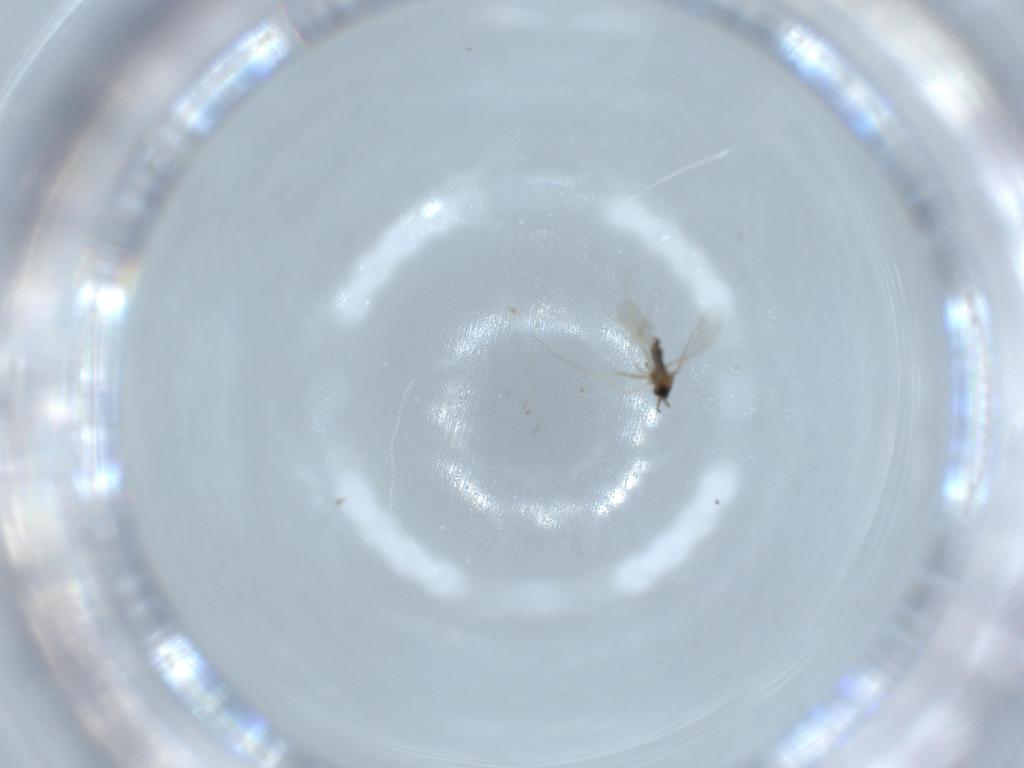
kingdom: Animalia
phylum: Arthropoda
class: Insecta
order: Diptera
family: Cecidomyiidae
